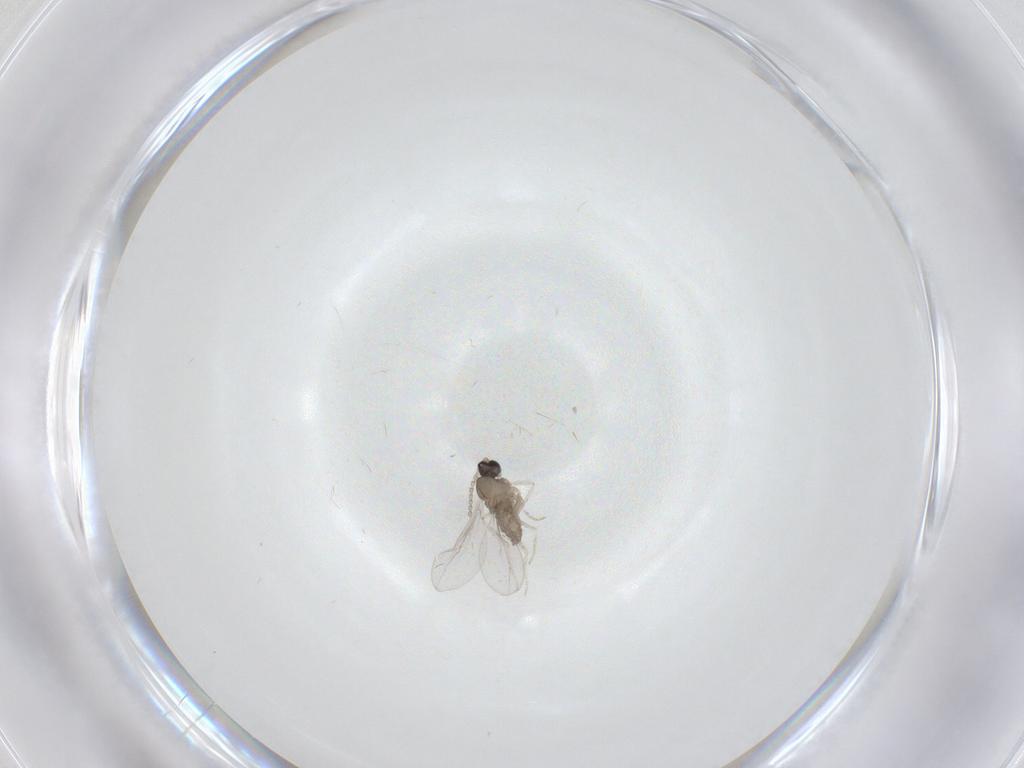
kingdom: Animalia
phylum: Arthropoda
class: Insecta
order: Diptera
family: Cecidomyiidae
